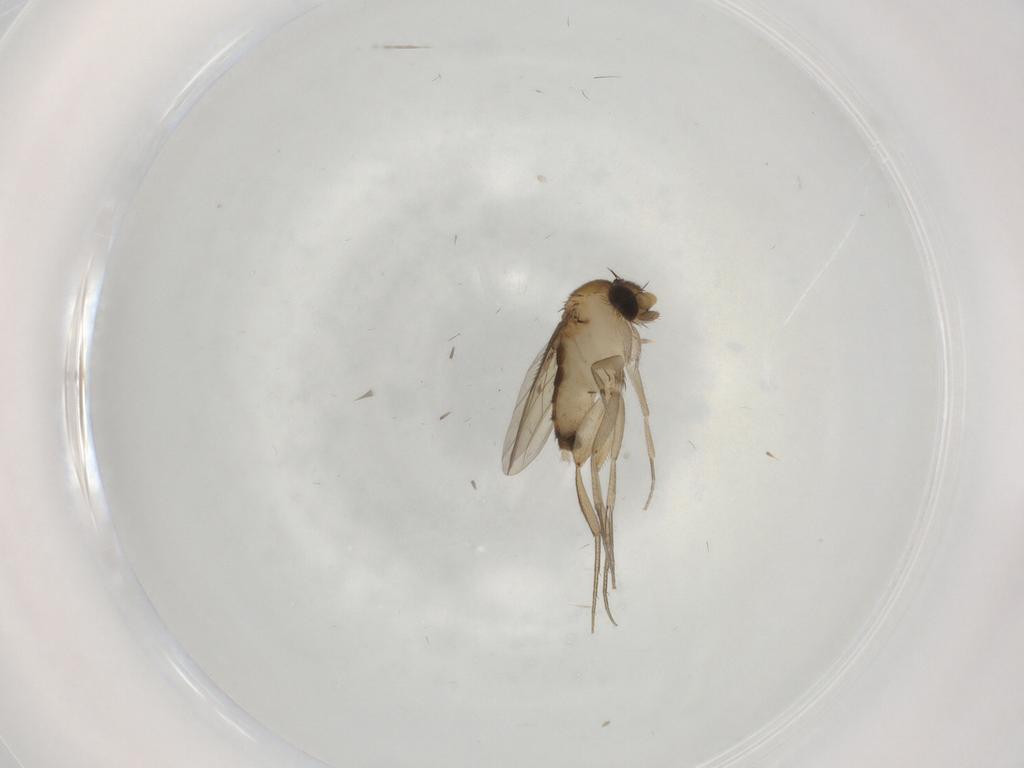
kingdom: Animalia
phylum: Arthropoda
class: Insecta
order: Diptera
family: Phoridae
